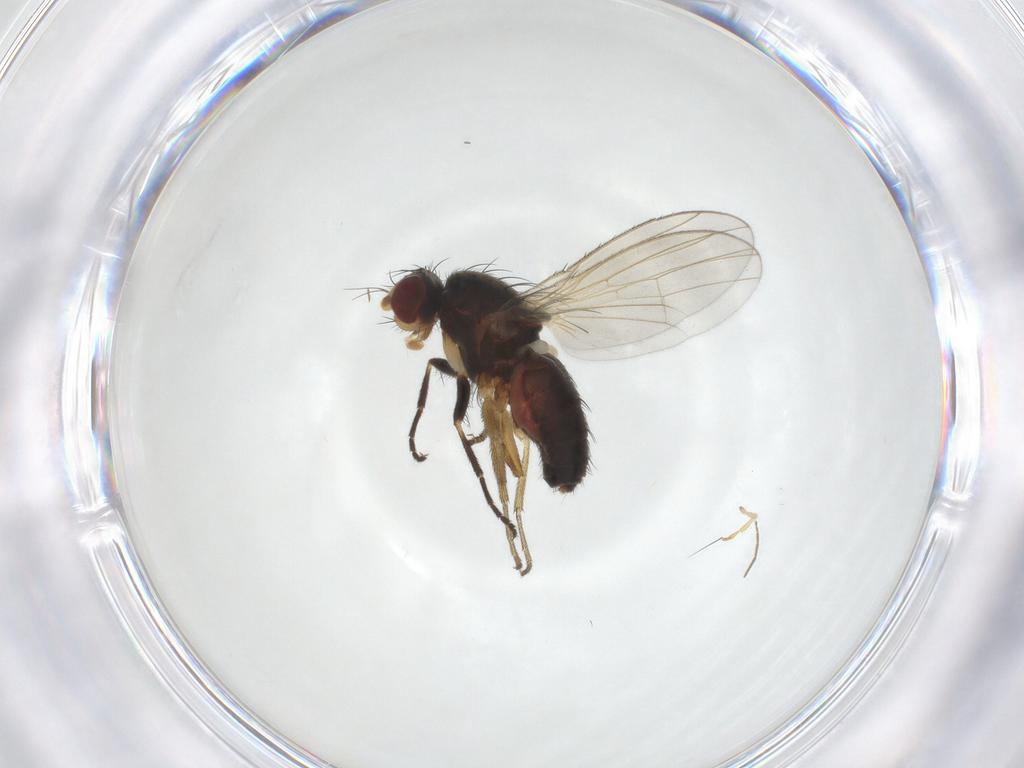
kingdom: Animalia
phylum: Arthropoda
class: Insecta
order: Diptera
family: Heleomyzidae
